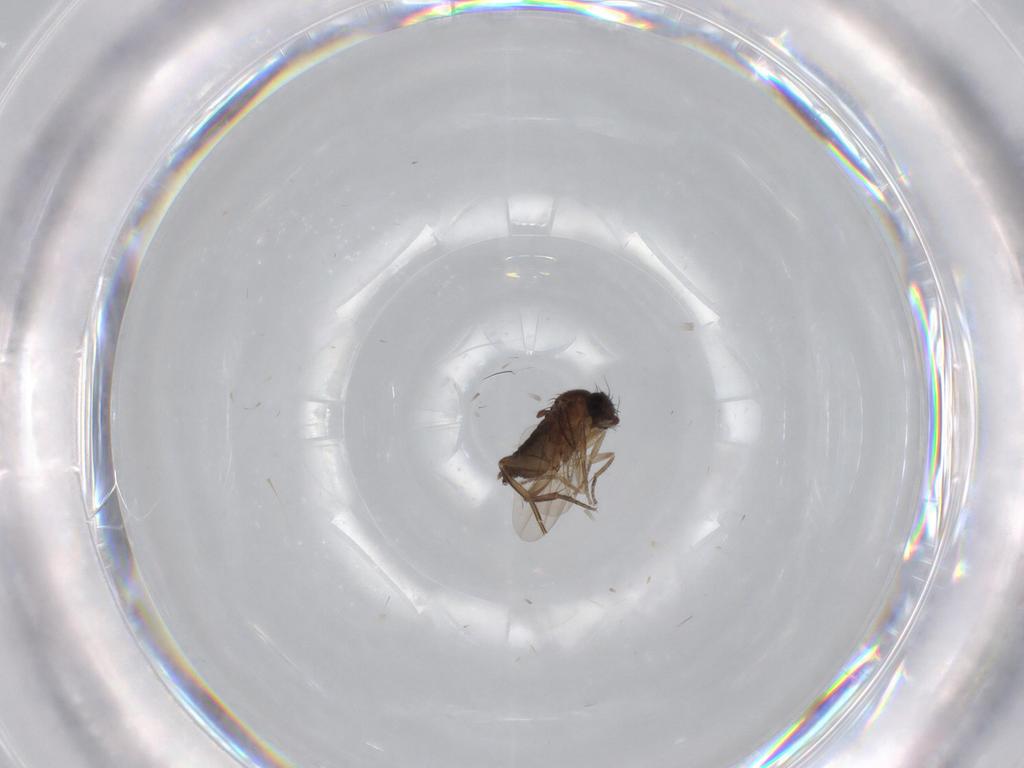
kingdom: Animalia
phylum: Arthropoda
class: Insecta
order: Diptera
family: Phoridae
